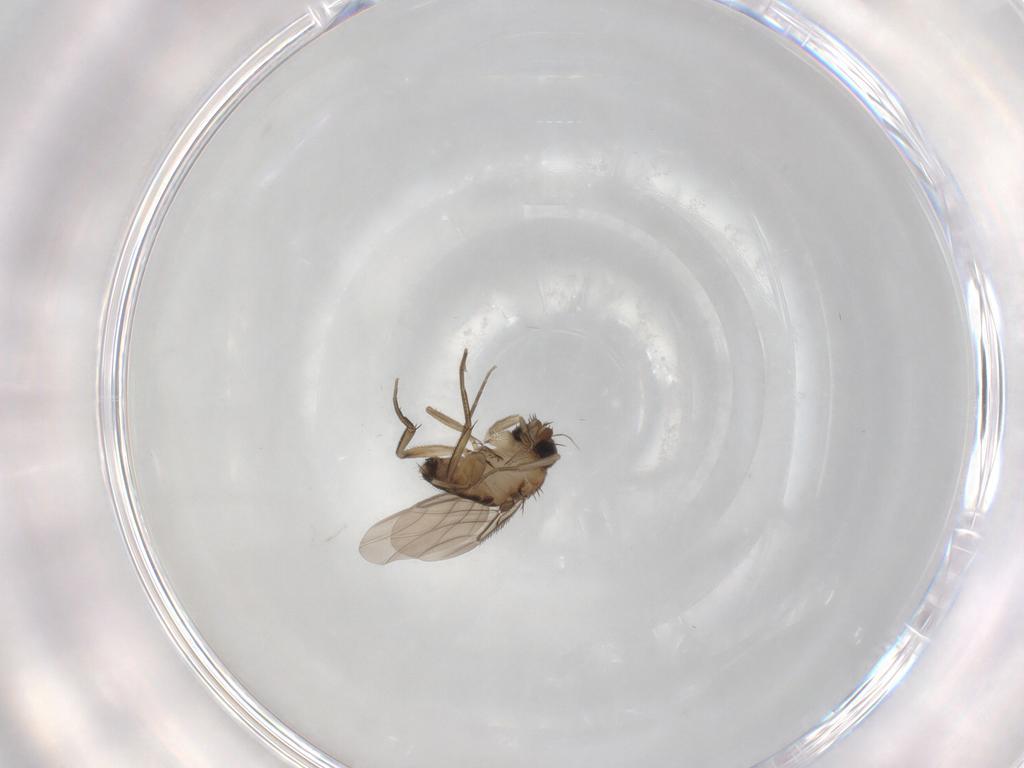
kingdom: Animalia
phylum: Arthropoda
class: Insecta
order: Diptera
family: Phoridae
